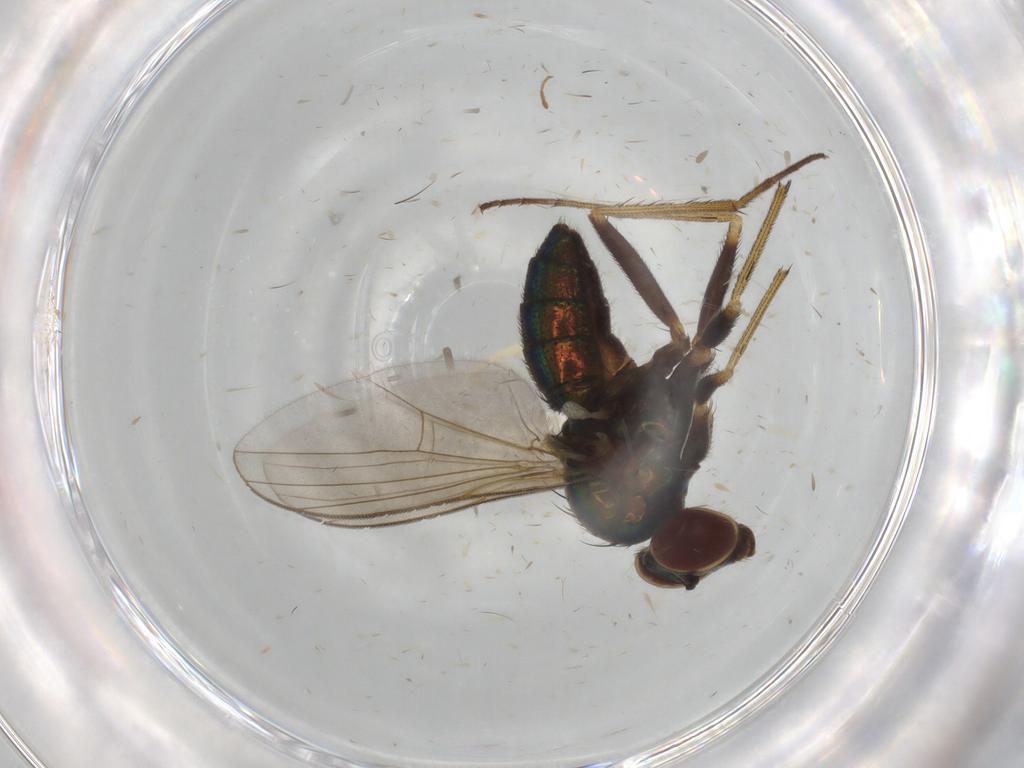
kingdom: Animalia
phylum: Arthropoda
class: Insecta
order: Diptera
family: Dolichopodidae
